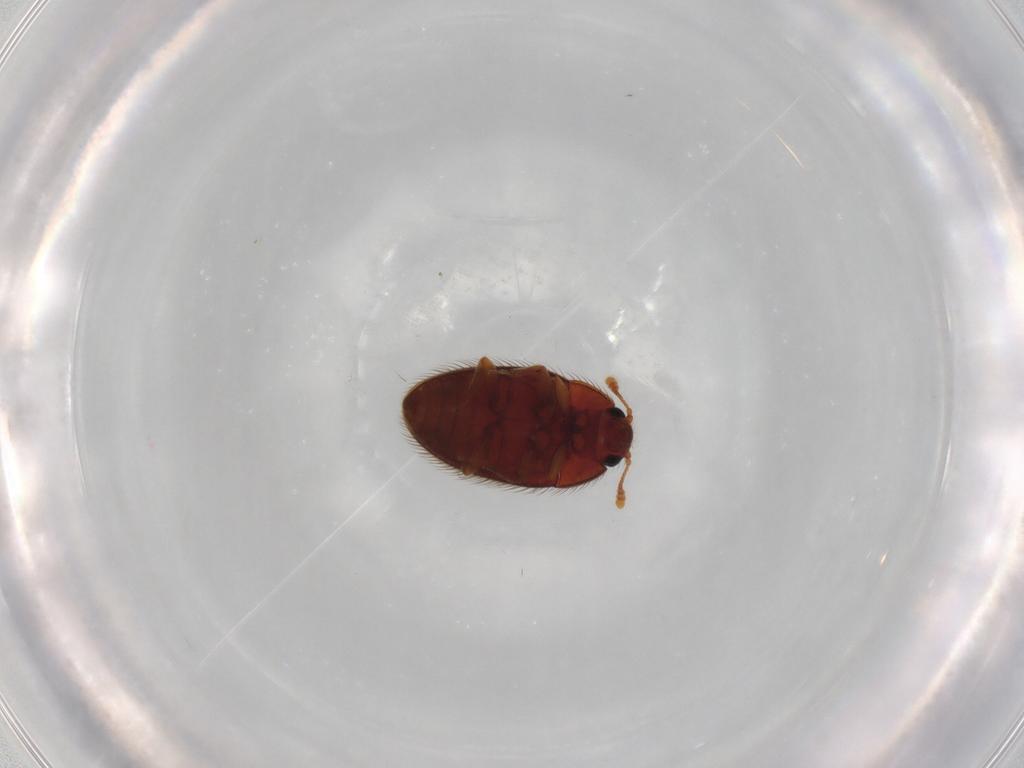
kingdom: Animalia
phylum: Arthropoda
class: Insecta
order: Coleoptera
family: Biphyllidae
